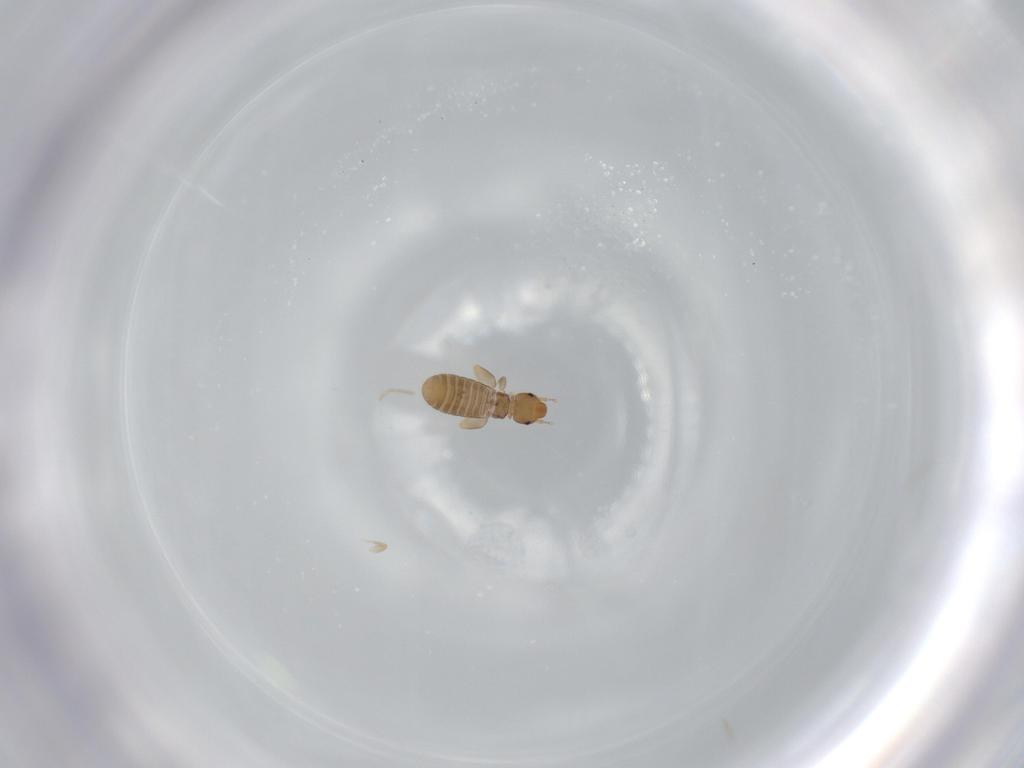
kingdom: Animalia
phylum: Arthropoda
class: Insecta
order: Psocodea
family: Liposcelididae
